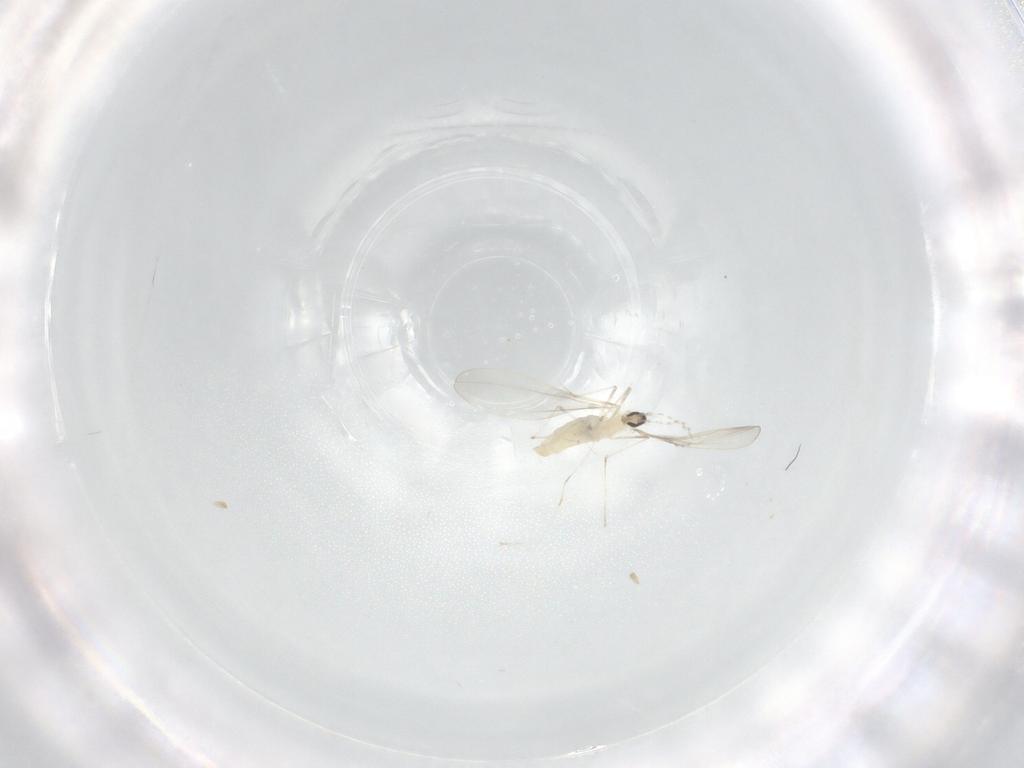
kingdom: Animalia
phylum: Arthropoda
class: Insecta
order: Diptera
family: Cecidomyiidae
